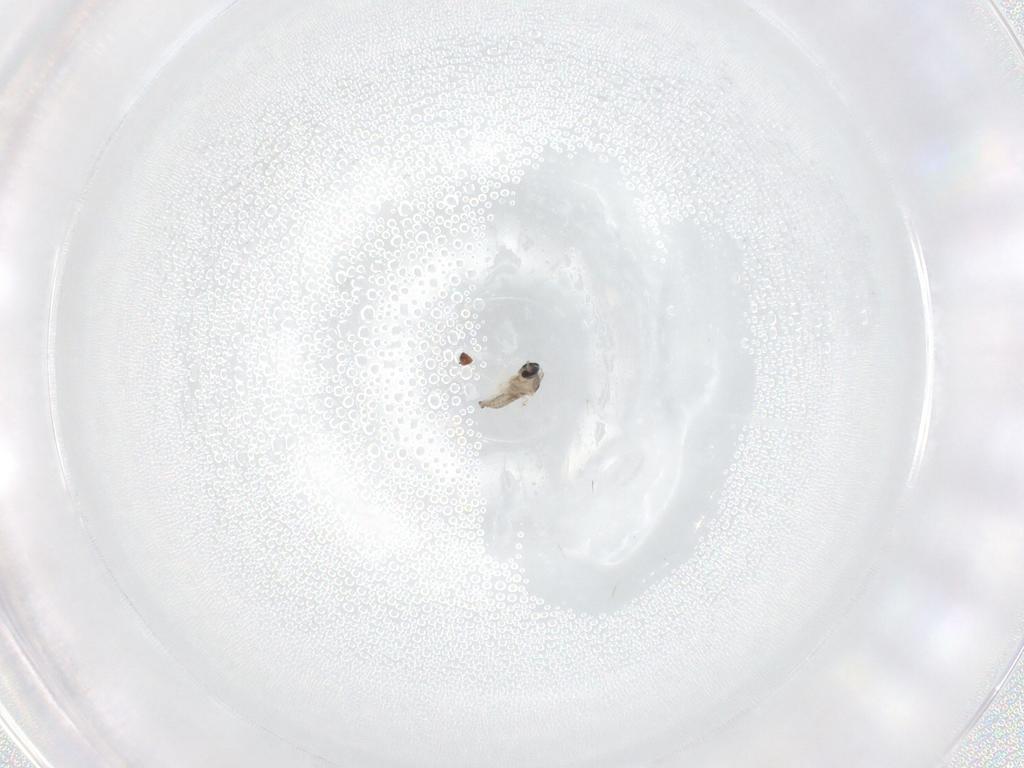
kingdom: Animalia
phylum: Arthropoda
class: Insecta
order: Diptera
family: Cecidomyiidae
